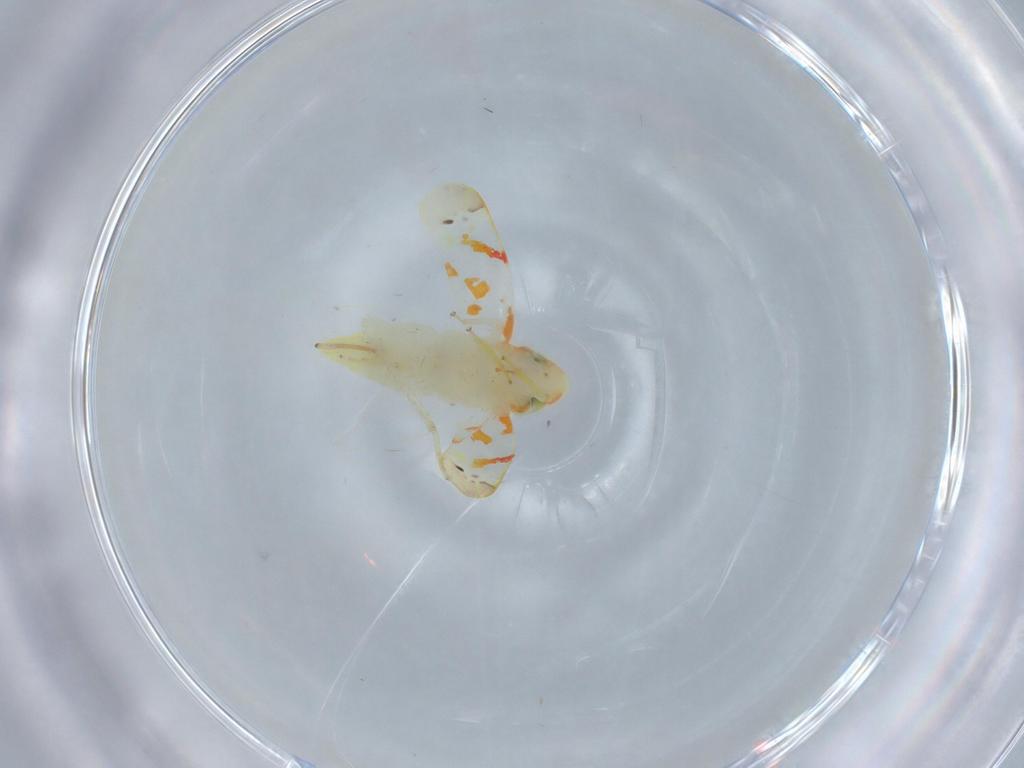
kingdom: Animalia
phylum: Arthropoda
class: Insecta
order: Hemiptera
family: Cicadellidae
